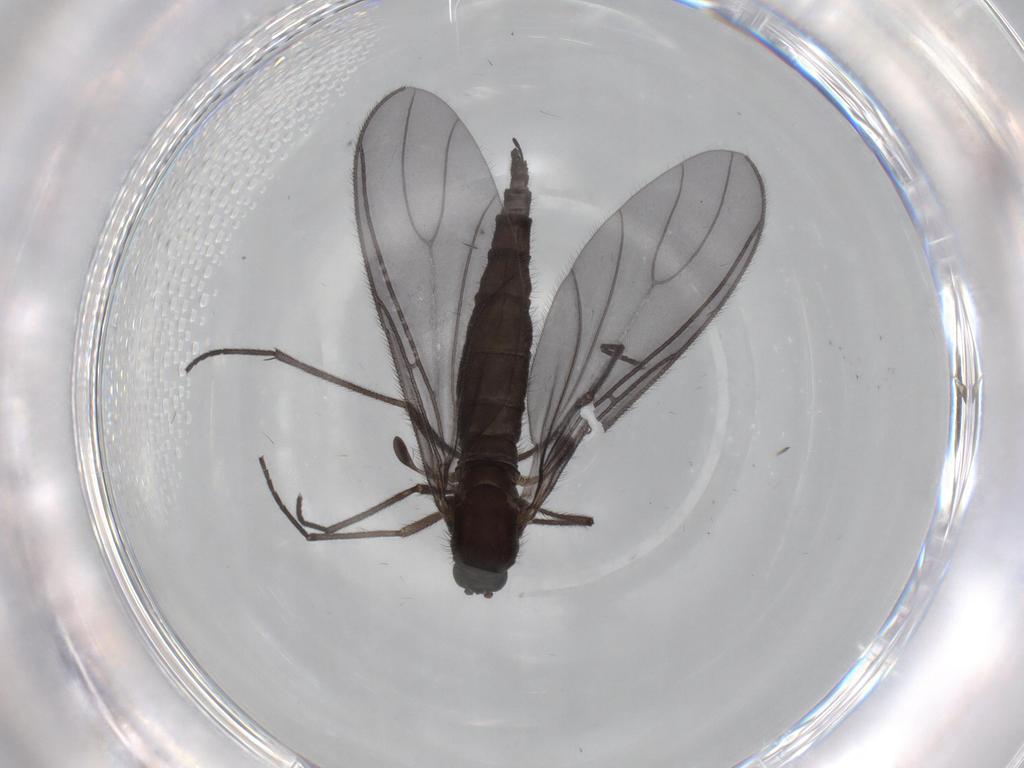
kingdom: Animalia
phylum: Arthropoda
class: Insecta
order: Diptera
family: Sciaridae
